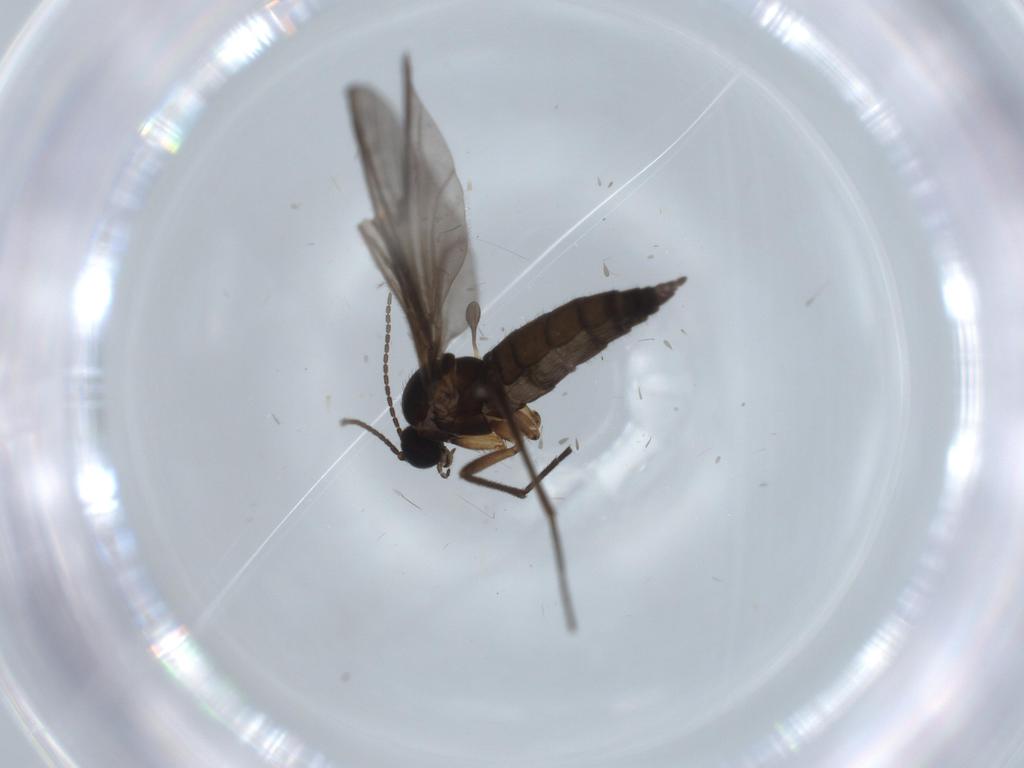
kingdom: Animalia
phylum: Arthropoda
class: Insecta
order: Diptera
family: Sciaridae
